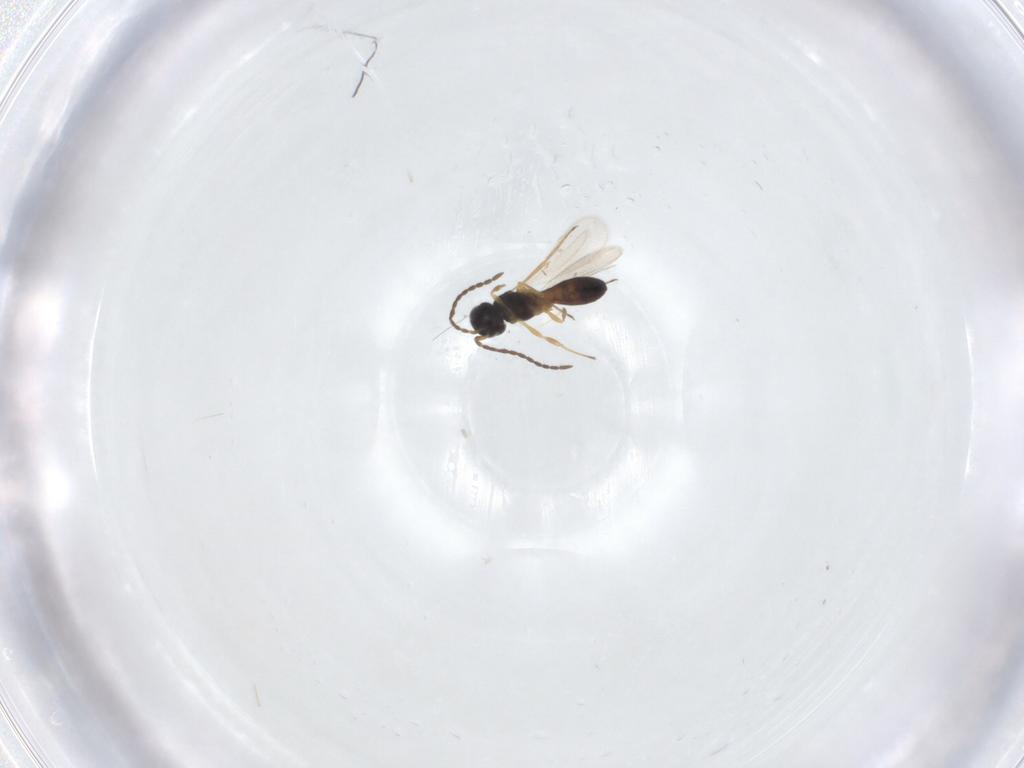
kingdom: Animalia
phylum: Arthropoda
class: Insecta
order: Hymenoptera
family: Scelionidae
